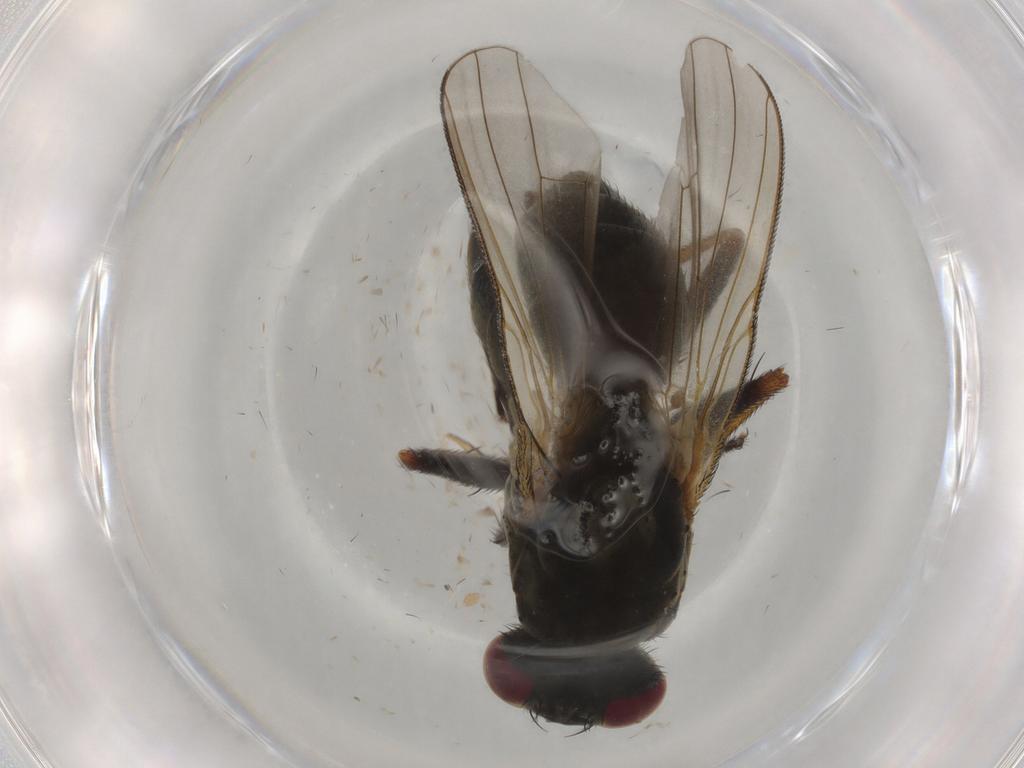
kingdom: Animalia
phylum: Arthropoda
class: Insecta
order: Diptera
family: Muscidae
